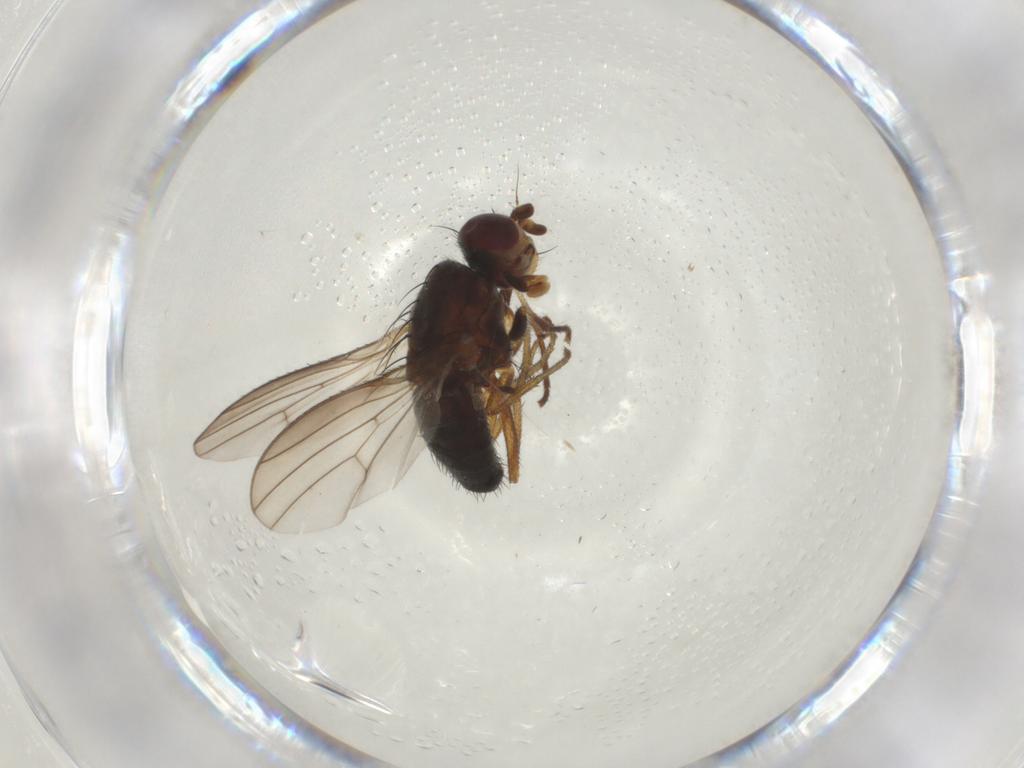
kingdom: Animalia
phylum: Arthropoda
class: Insecta
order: Diptera
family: Heleomyzidae
